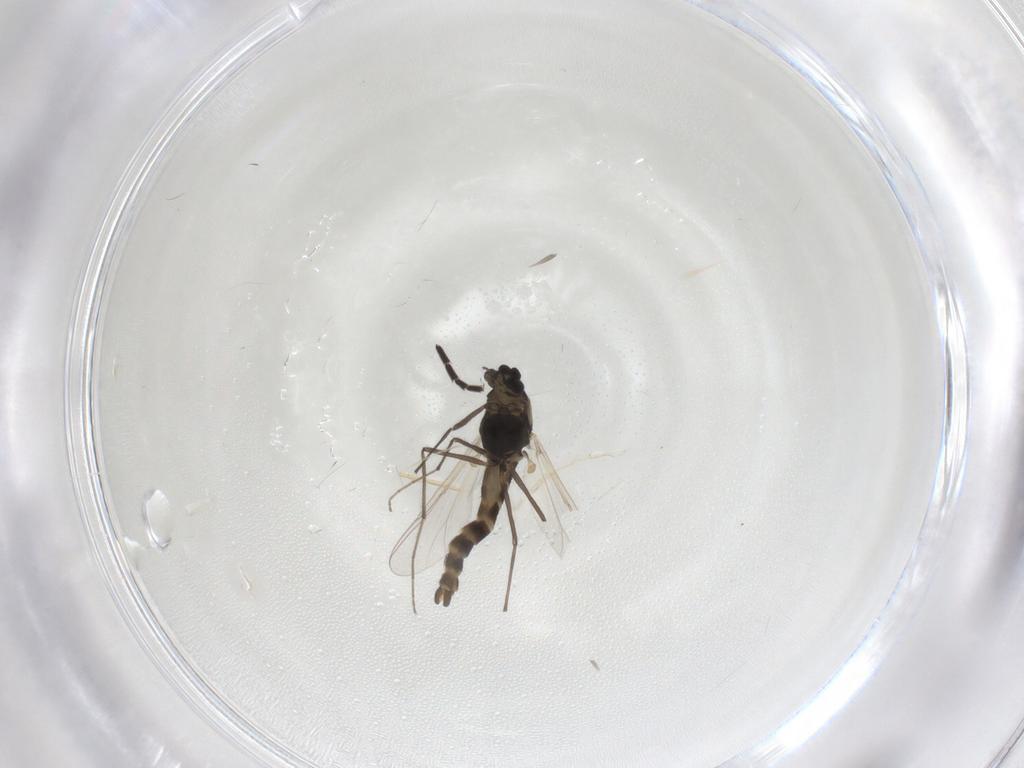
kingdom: Animalia
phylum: Arthropoda
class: Insecta
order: Diptera
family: Chironomidae
